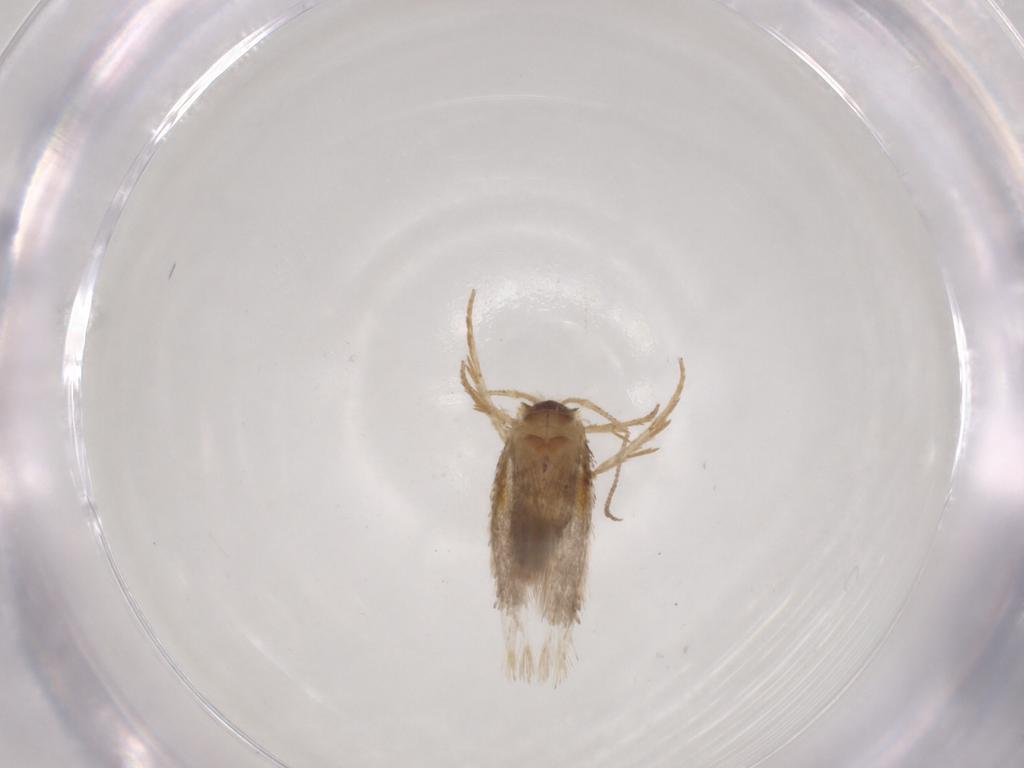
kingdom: Animalia
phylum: Arthropoda
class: Insecta
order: Lepidoptera
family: Nepticulidae
